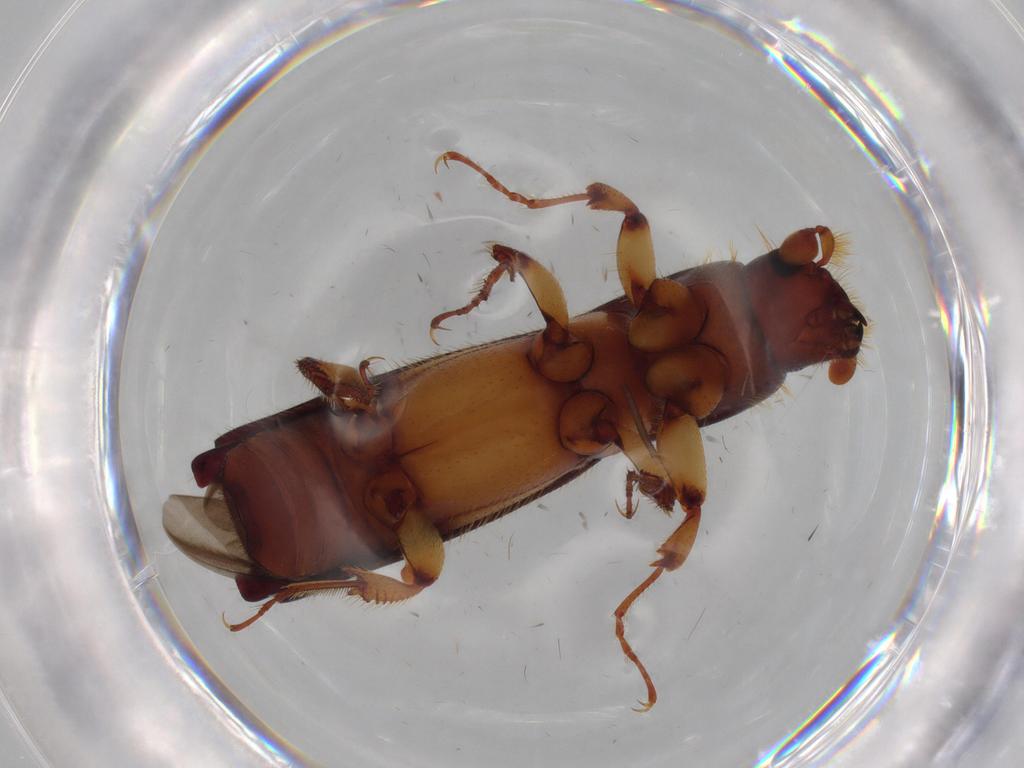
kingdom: Animalia
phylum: Arthropoda
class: Insecta
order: Coleoptera
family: Curculionidae
